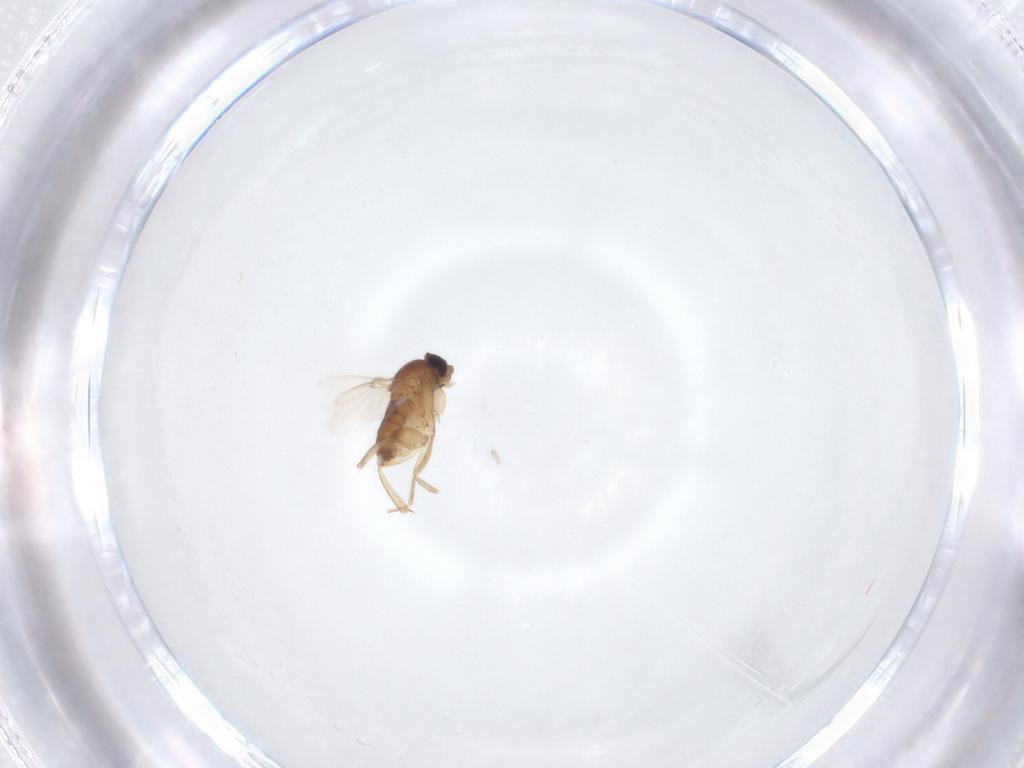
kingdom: Animalia
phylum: Arthropoda
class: Insecta
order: Diptera
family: Phoridae
